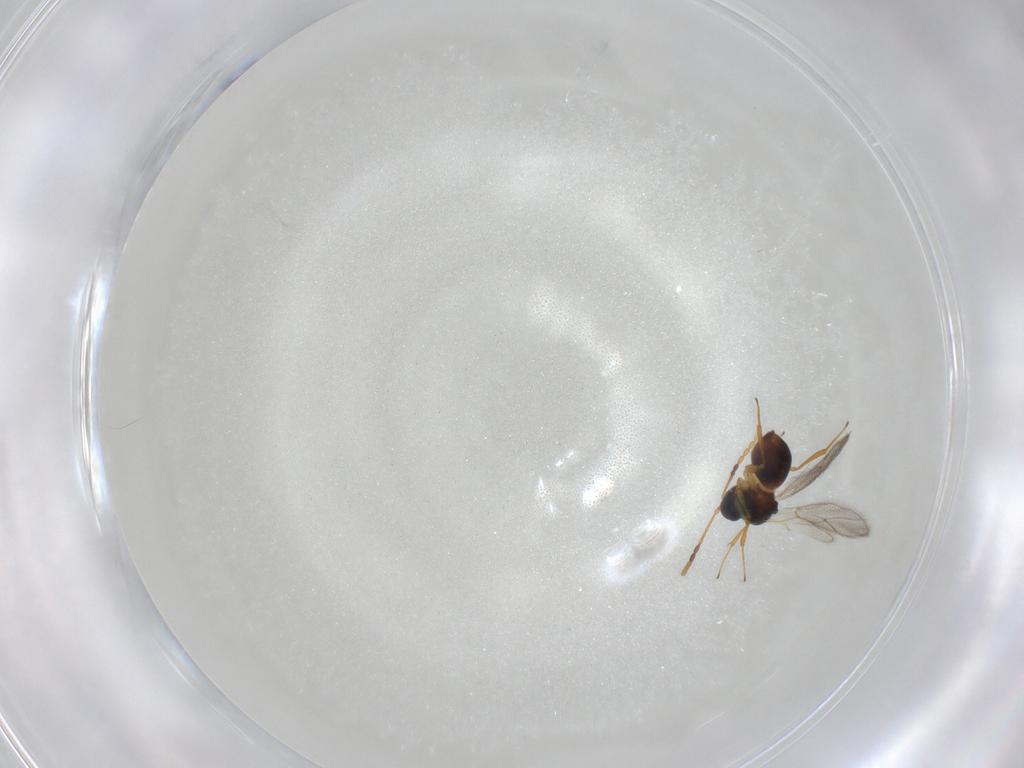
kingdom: Animalia
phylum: Arthropoda
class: Insecta
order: Hymenoptera
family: Figitidae
